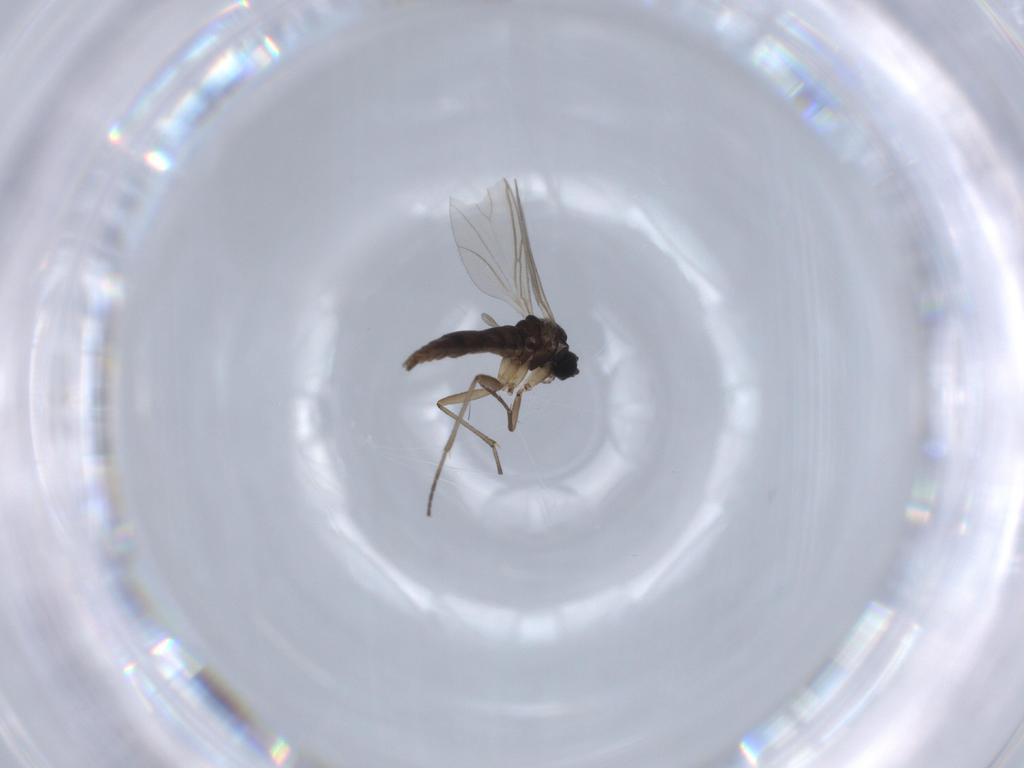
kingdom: Animalia
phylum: Arthropoda
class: Insecta
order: Diptera
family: Sciaridae
